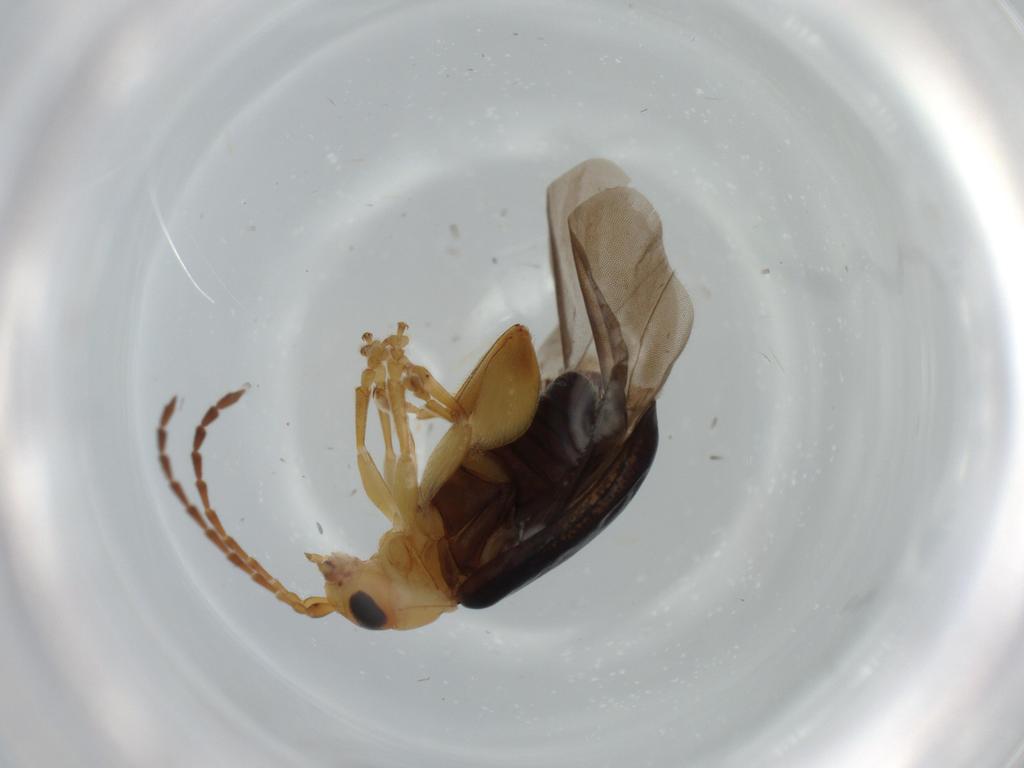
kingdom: Animalia
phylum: Arthropoda
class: Insecta
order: Coleoptera
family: Chrysomelidae
